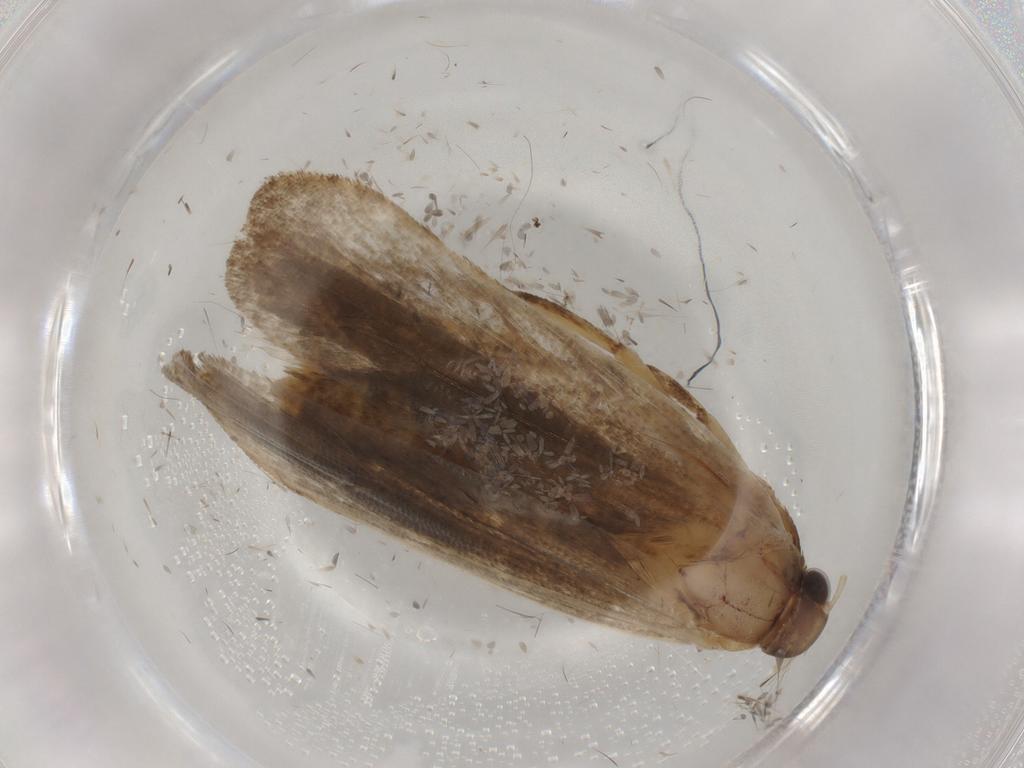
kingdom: Animalia
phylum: Arthropoda
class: Insecta
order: Lepidoptera
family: Gelechiidae
